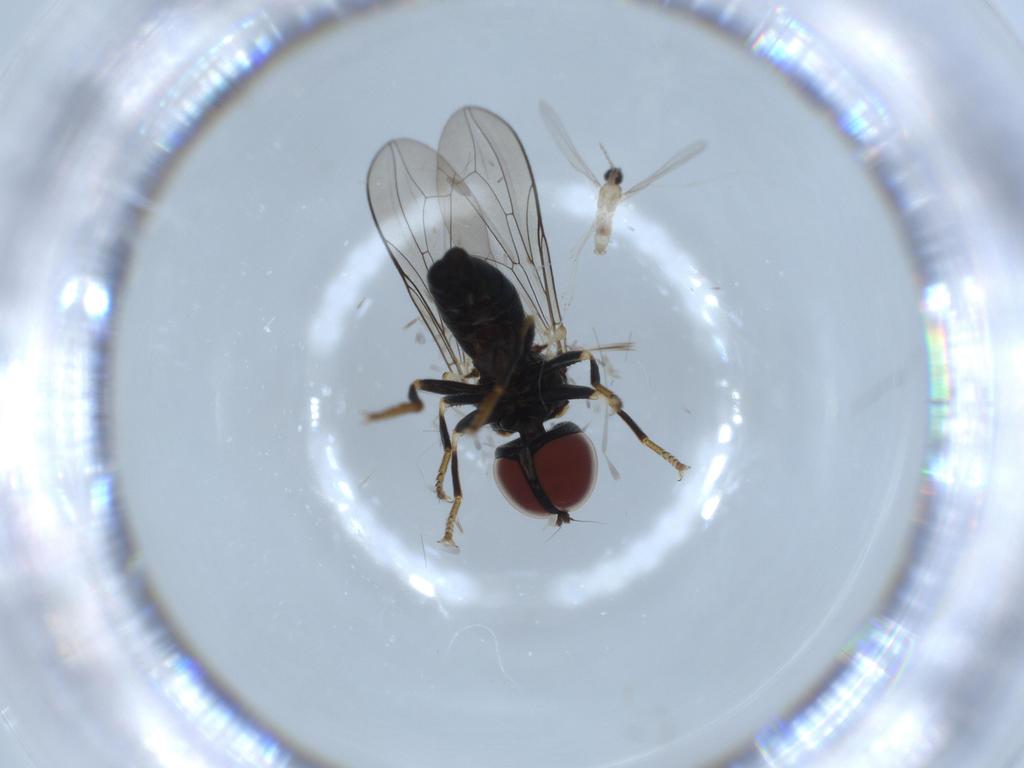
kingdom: Animalia
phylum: Arthropoda
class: Insecta
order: Diptera
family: Pipunculidae
